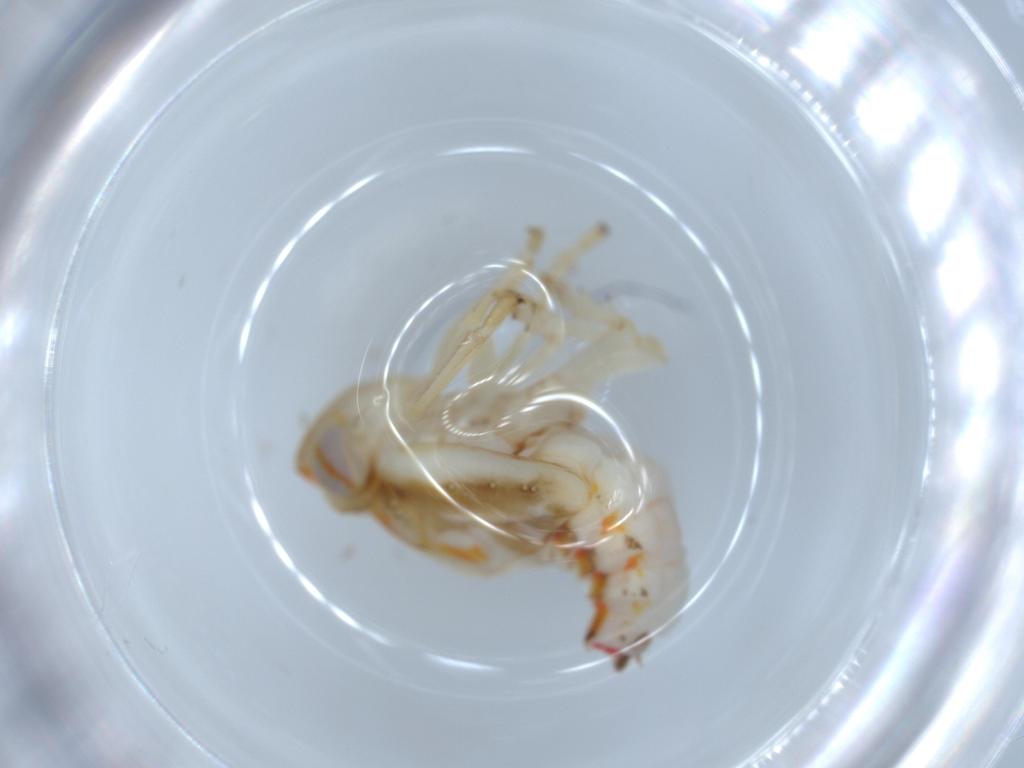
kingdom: Animalia
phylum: Arthropoda
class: Insecta
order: Hemiptera
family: Nogodinidae
